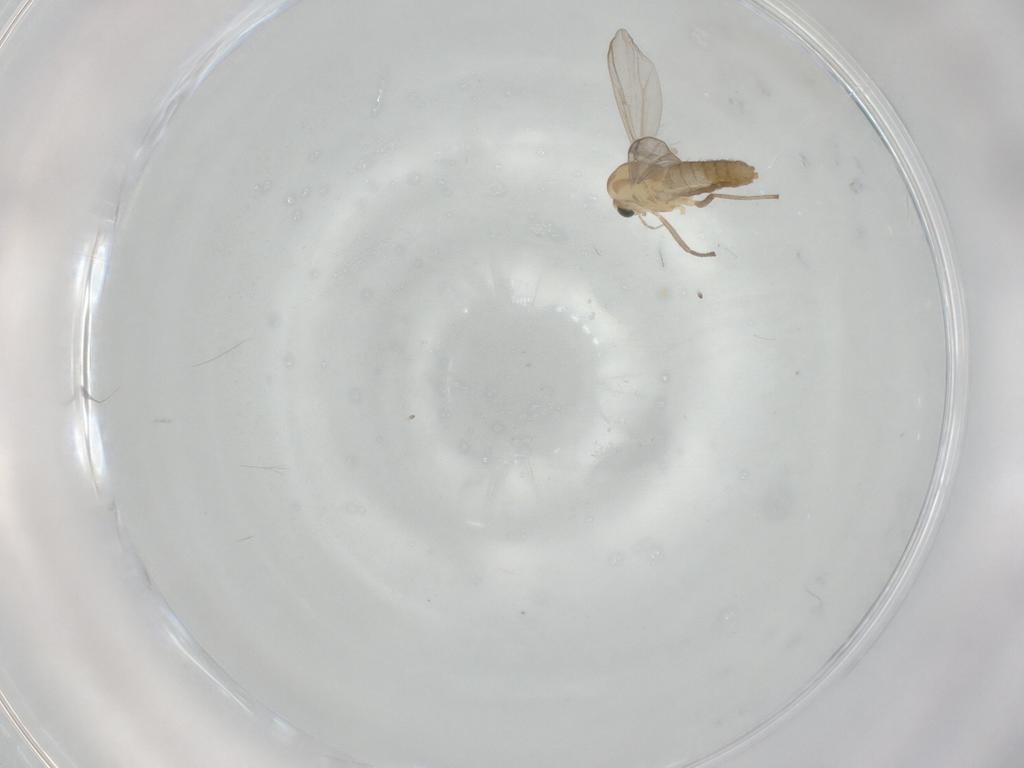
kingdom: Animalia
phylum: Arthropoda
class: Insecta
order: Diptera
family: Chironomidae
